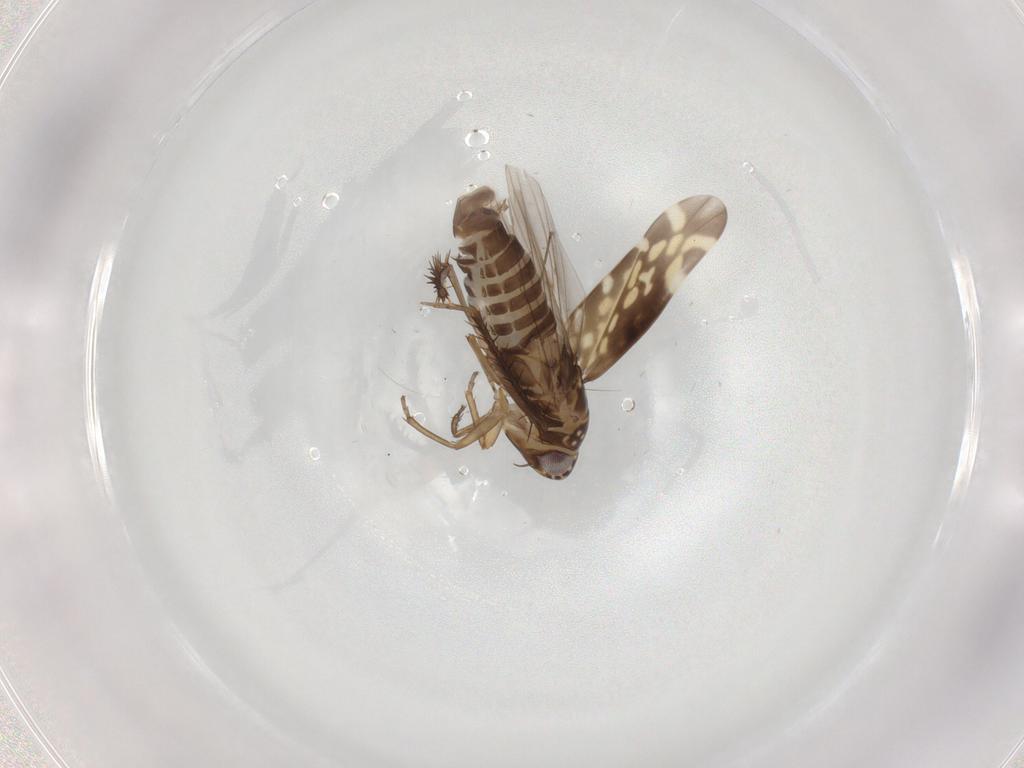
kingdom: Animalia
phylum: Arthropoda
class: Insecta
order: Hemiptera
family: Cicadellidae
